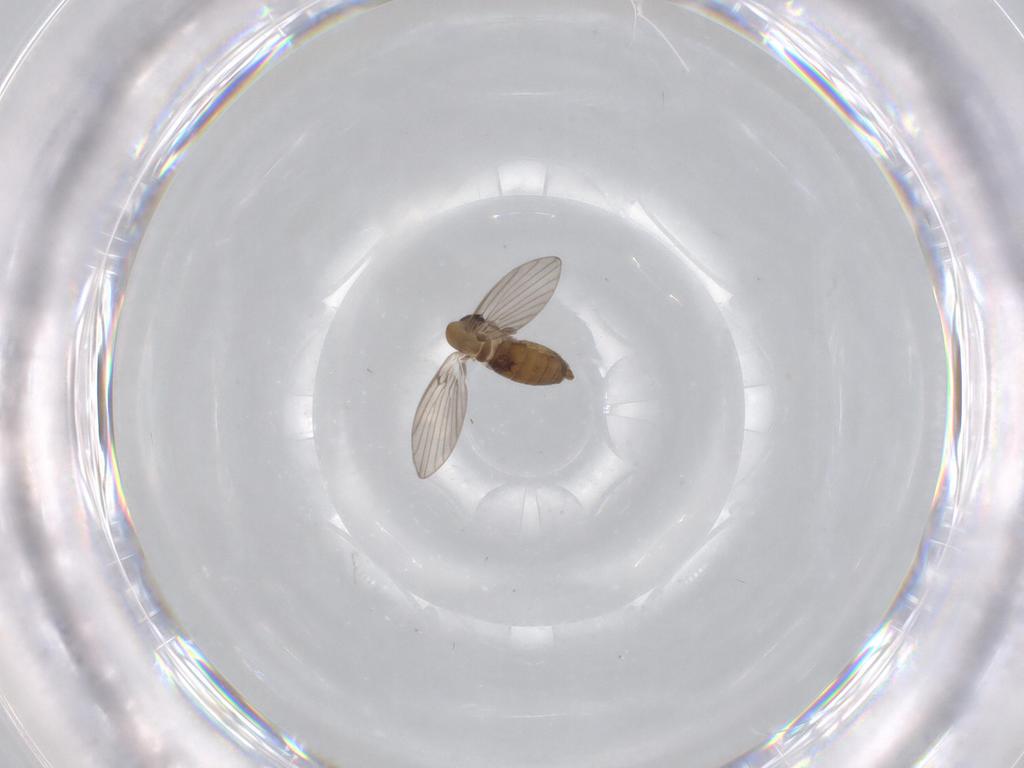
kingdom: Animalia
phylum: Arthropoda
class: Insecta
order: Diptera
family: Psychodidae
